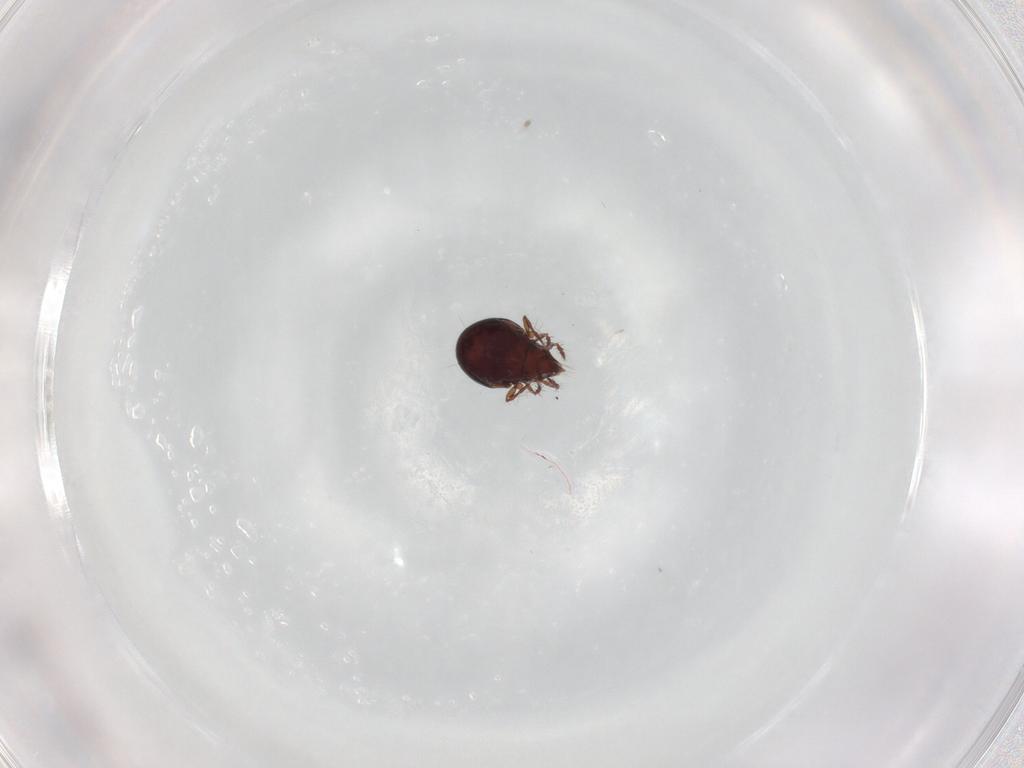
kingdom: Animalia
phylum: Arthropoda
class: Arachnida
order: Sarcoptiformes
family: Ceratoppiidae
